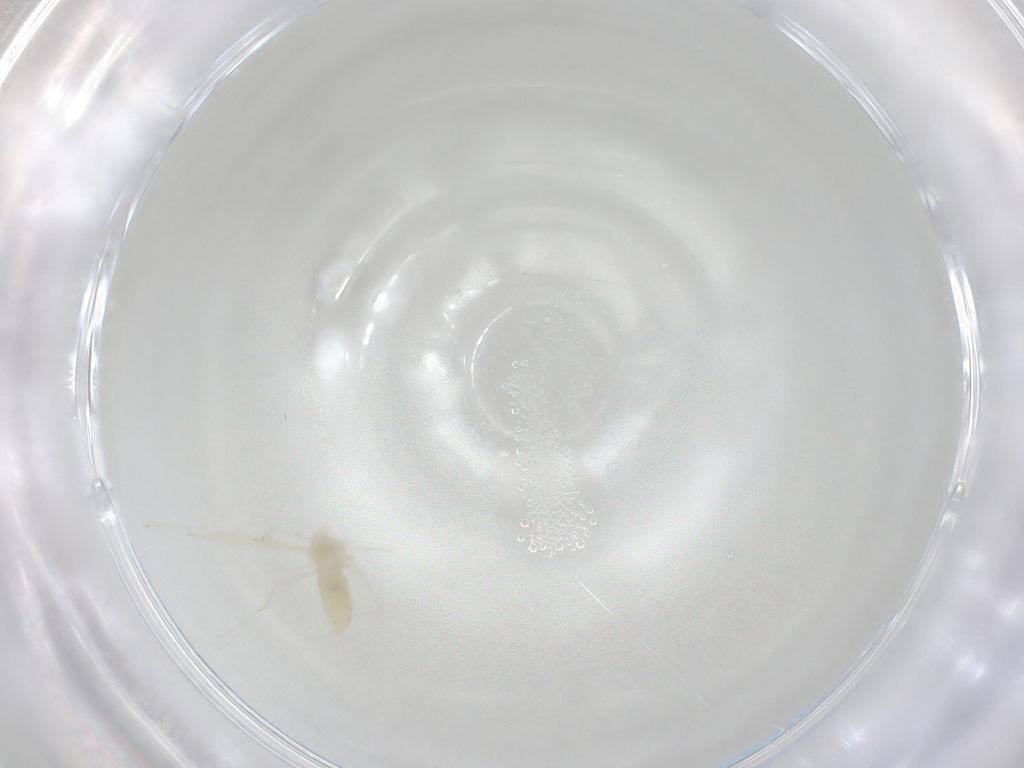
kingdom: Animalia
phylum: Arthropoda
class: Insecta
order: Diptera
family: Cecidomyiidae
